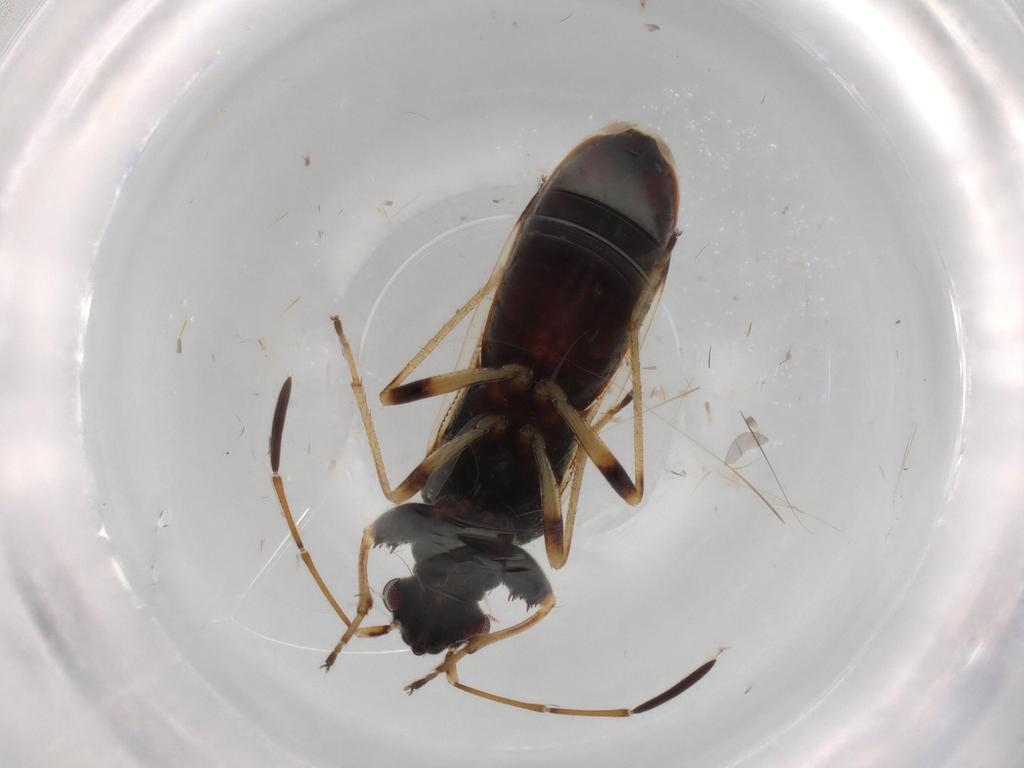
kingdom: Animalia
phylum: Arthropoda
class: Insecta
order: Hemiptera
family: Rhyparochromidae
